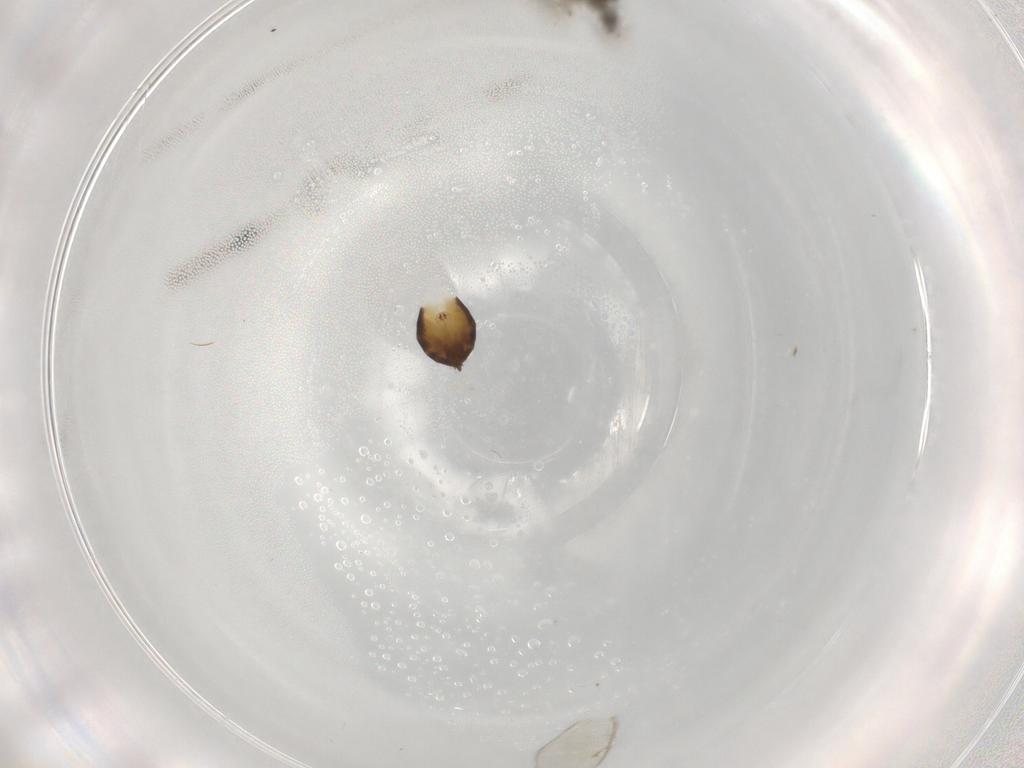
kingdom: Animalia
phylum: Arthropoda
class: Insecta
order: Hymenoptera
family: Eulophidae
